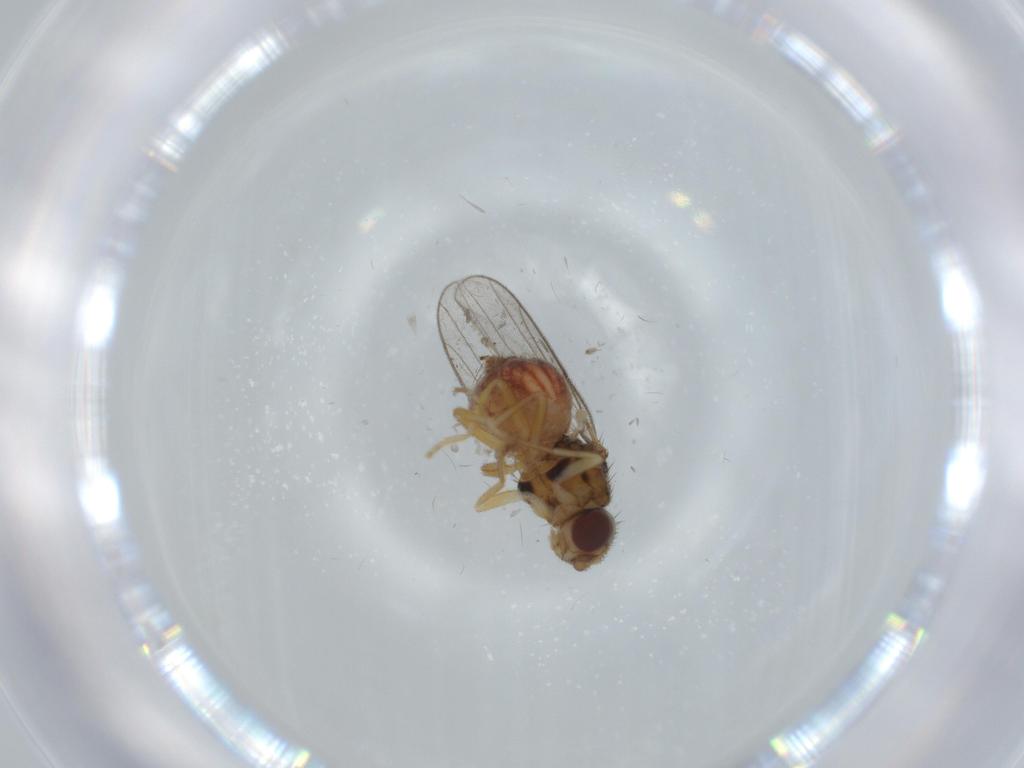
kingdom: Animalia
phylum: Arthropoda
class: Insecta
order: Diptera
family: Chloropidae
